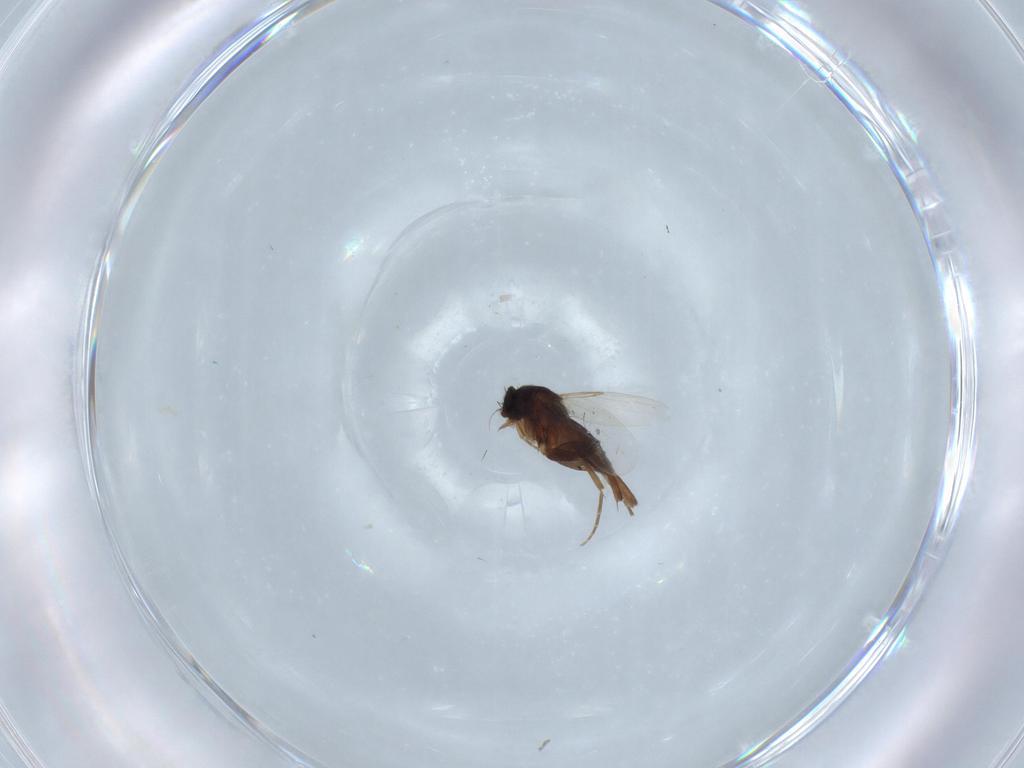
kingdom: Animalia
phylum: Arthropoda
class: Insecta
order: Diptera
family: Cecidomyiidae
